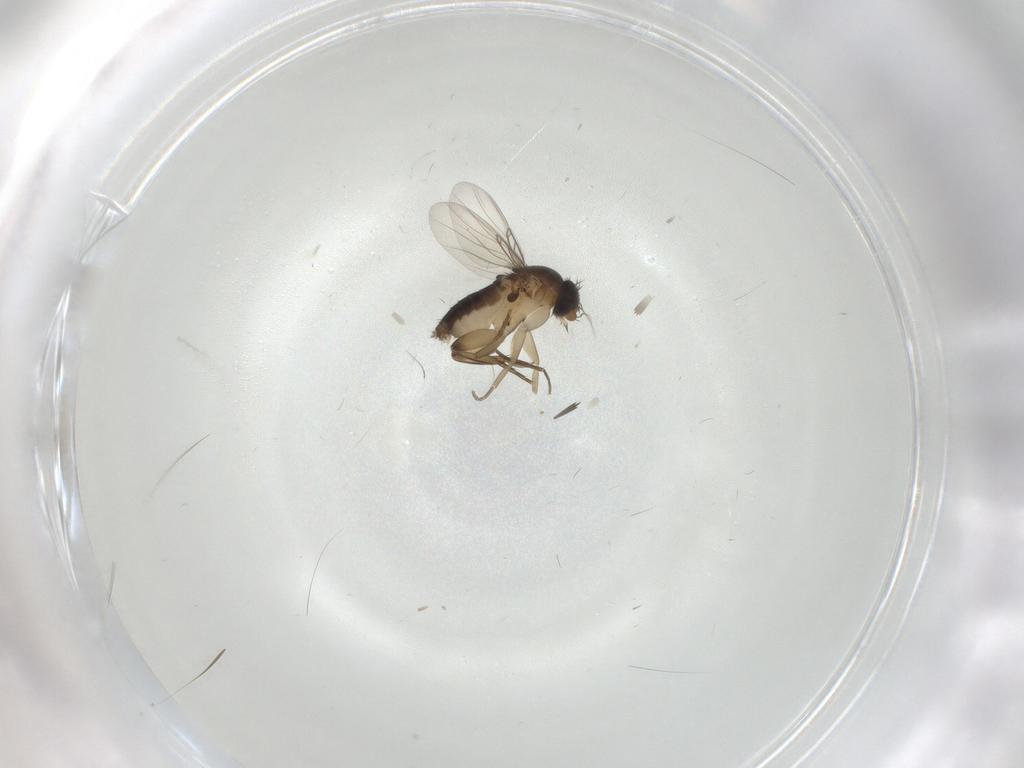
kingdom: Animalia
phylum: Arthropoda
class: Insecta
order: Diptera
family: Phoridae
